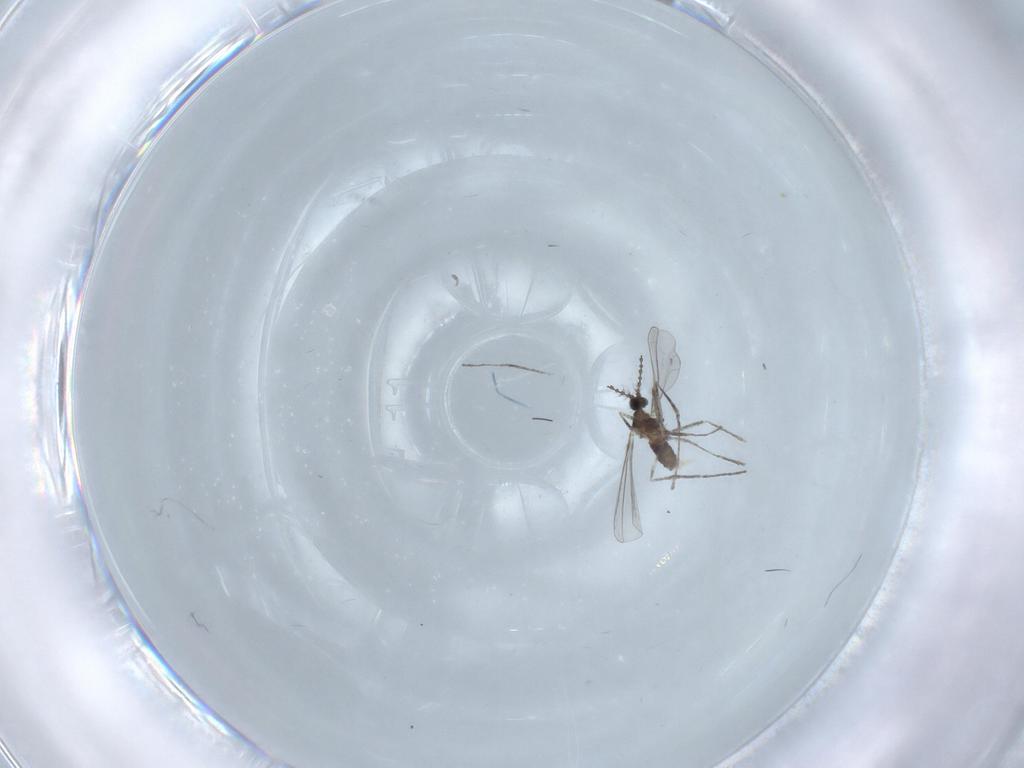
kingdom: Animalia
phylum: Arthropoda
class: Insecta
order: Diptera
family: Cecidomyiidae
